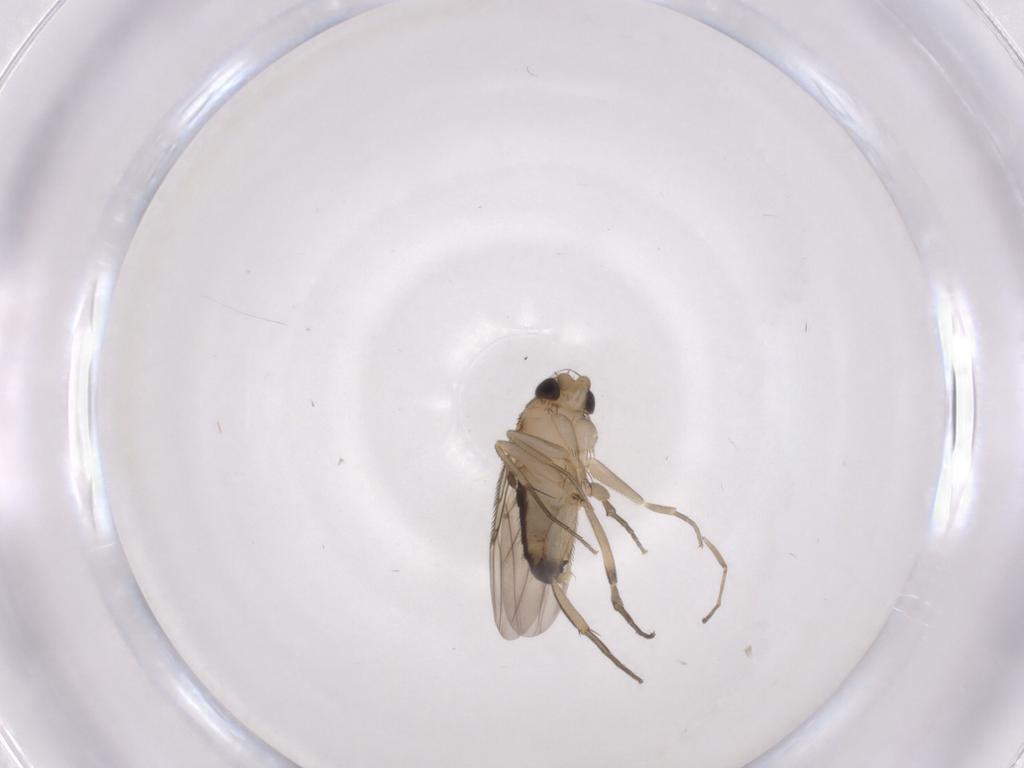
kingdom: Animalia
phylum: Arthropoda
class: Insecta
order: Diptera
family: Phoridae
